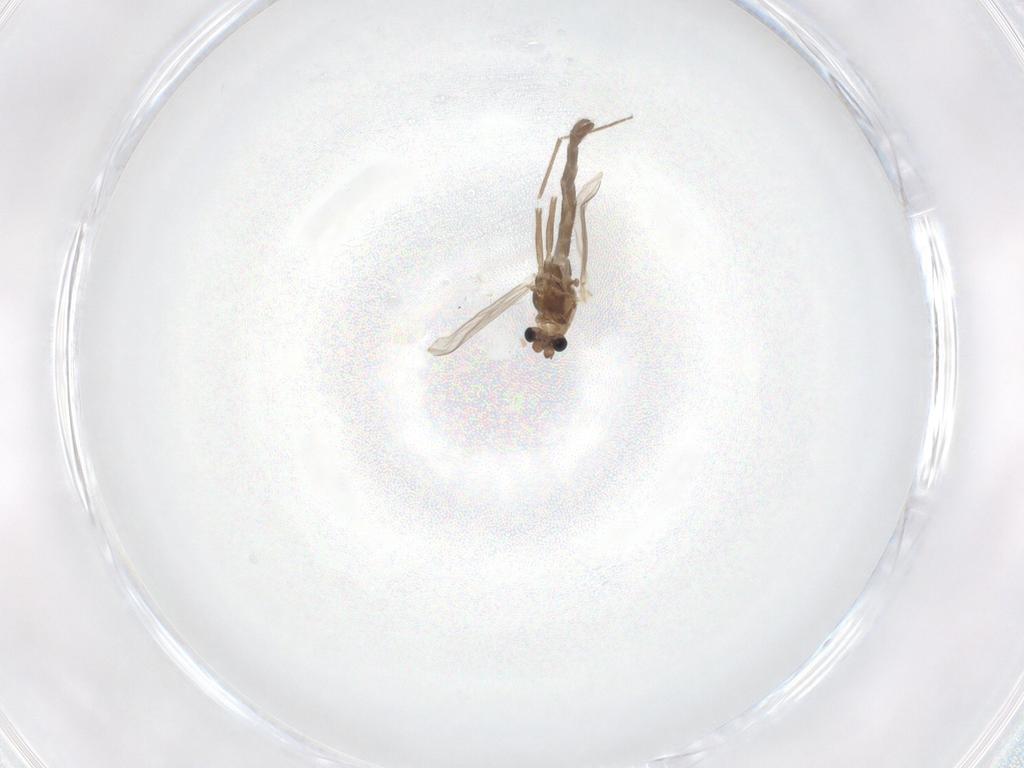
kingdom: Animalia
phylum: Arthropoda
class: Insecta
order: Diptera
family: Chironomidae
